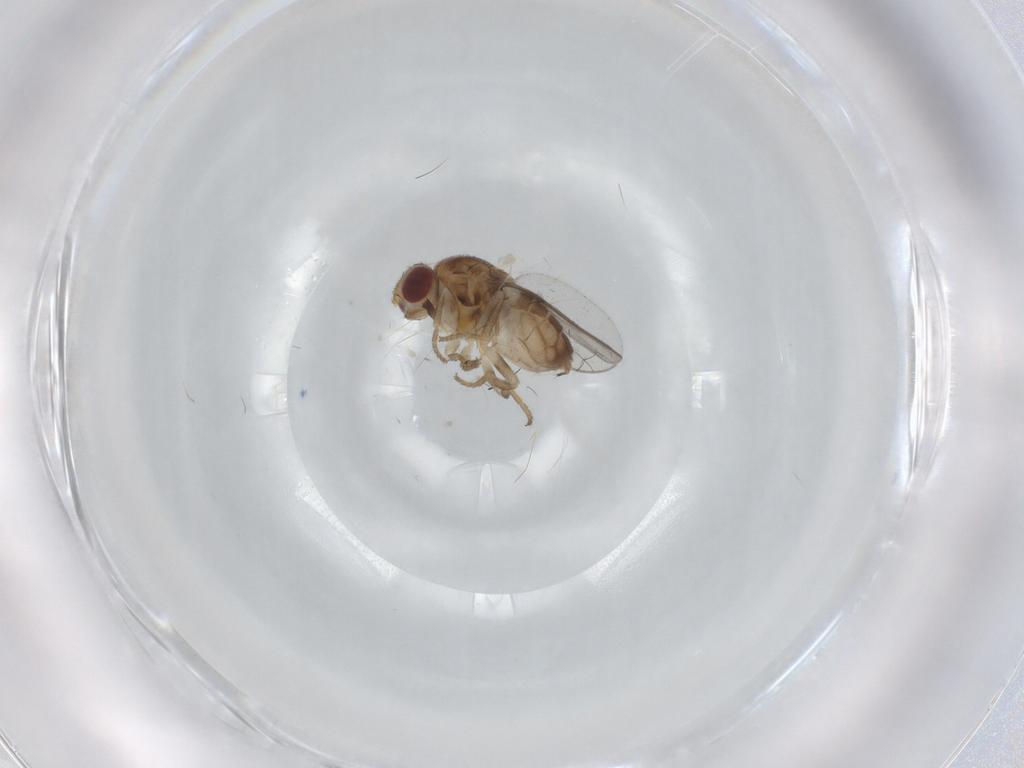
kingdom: Animalia
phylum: Arthropoda
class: Insecta
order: Diptera
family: Chloropidae
